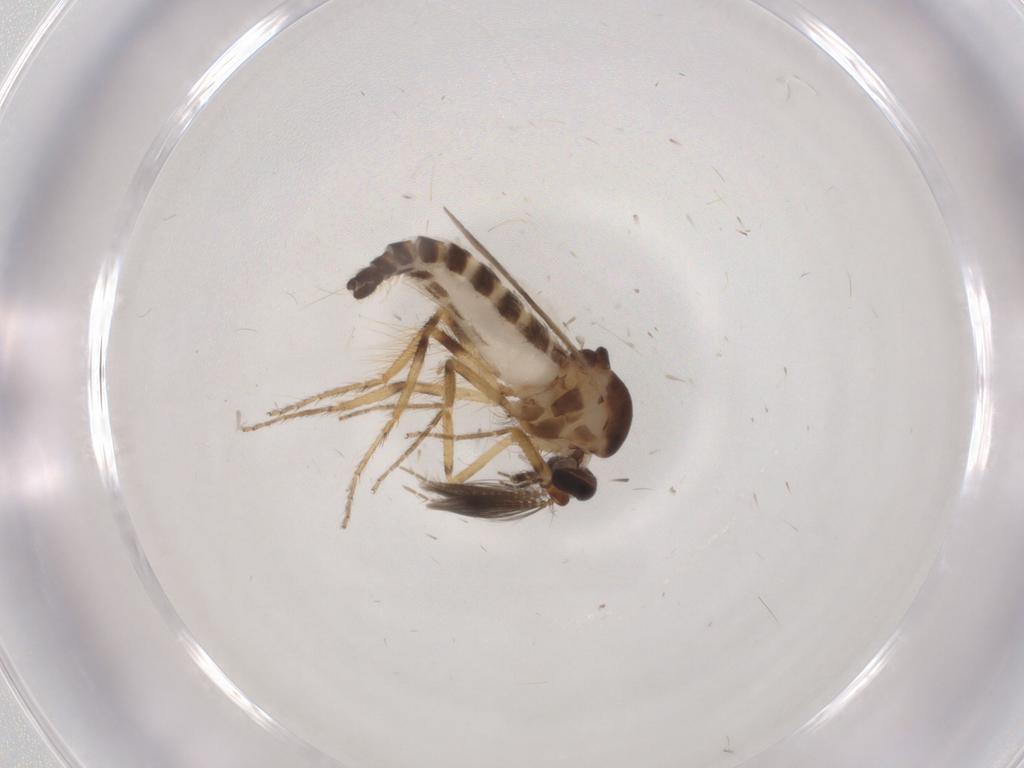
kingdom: Animalia
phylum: Arthropoda
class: Insecta
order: Diptera
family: Ceratopogonidae
